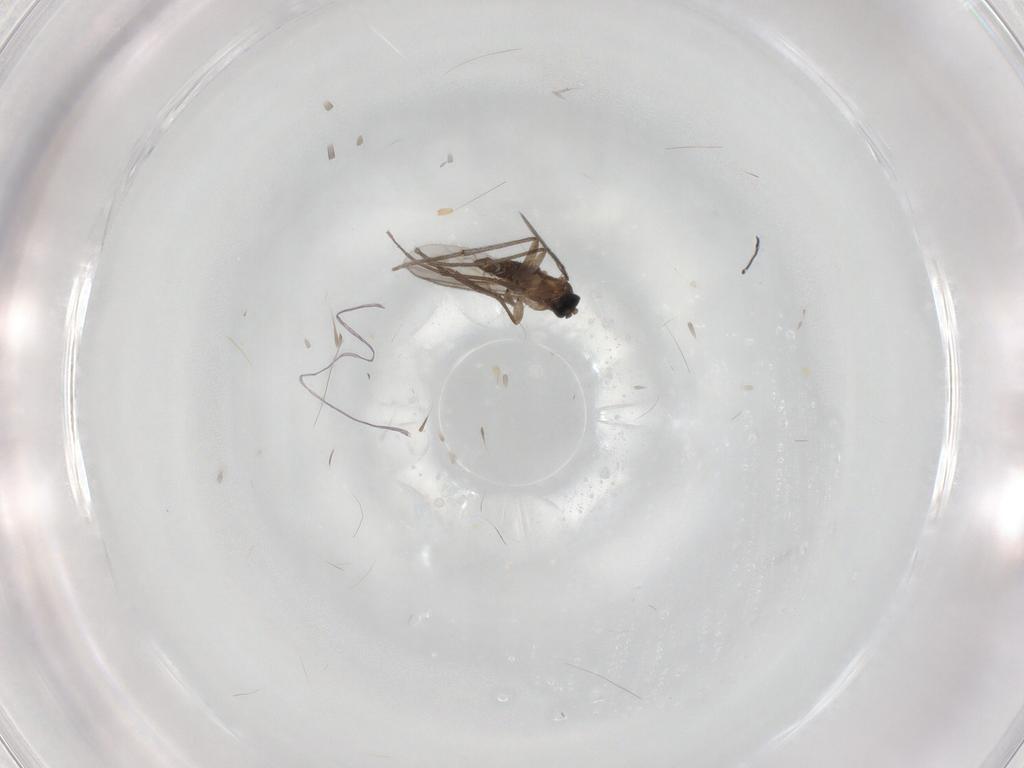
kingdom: Animalia
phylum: Arthropoda
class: Insecta
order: Diptera
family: Sciaridae
